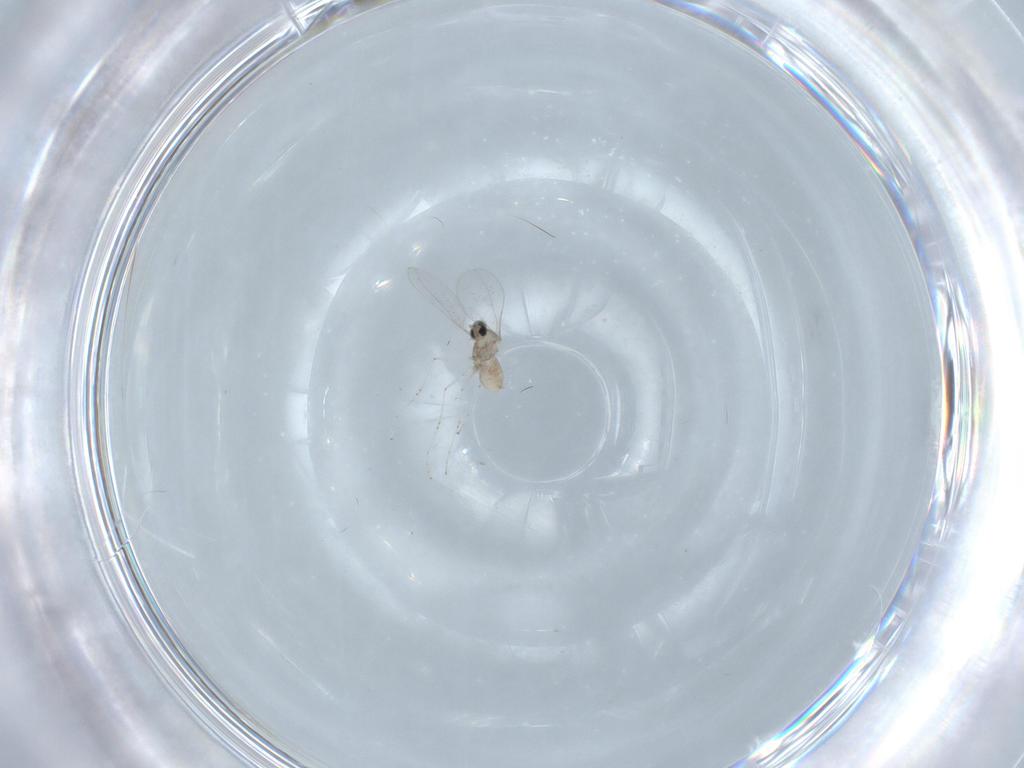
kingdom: Animalia
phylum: Arthropoda
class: Insecta
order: Diptera
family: Cecidomyiidae
